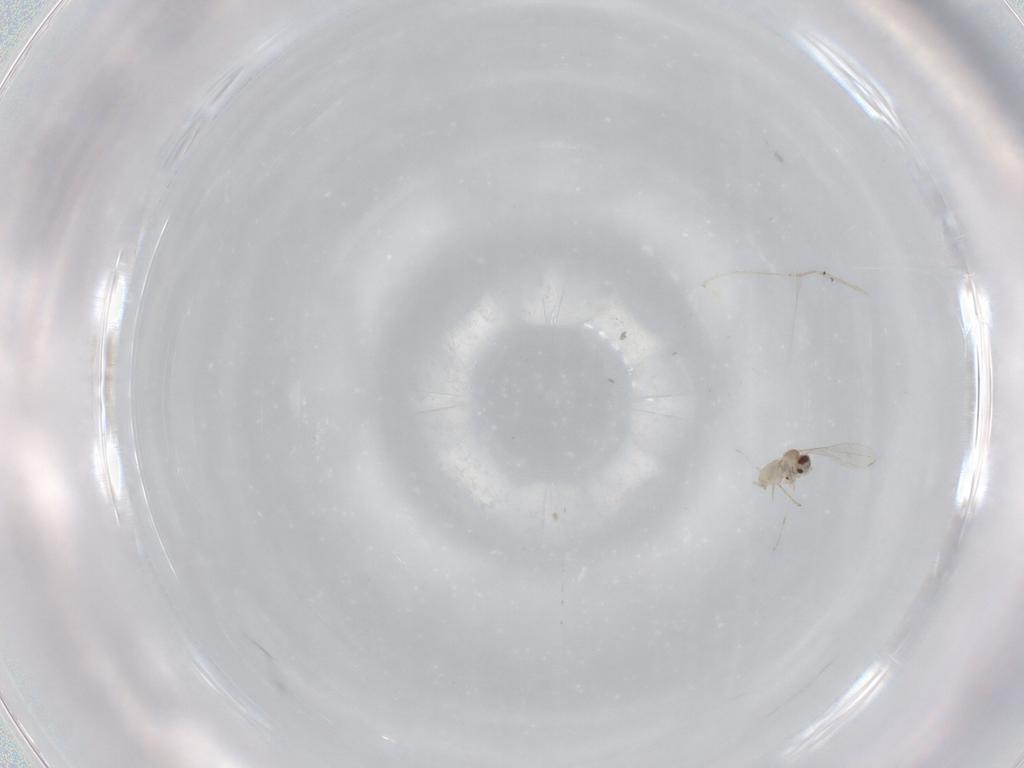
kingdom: Animalia
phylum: Arthropoda
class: Insecta
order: Diptera
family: Cecidomyiidae
